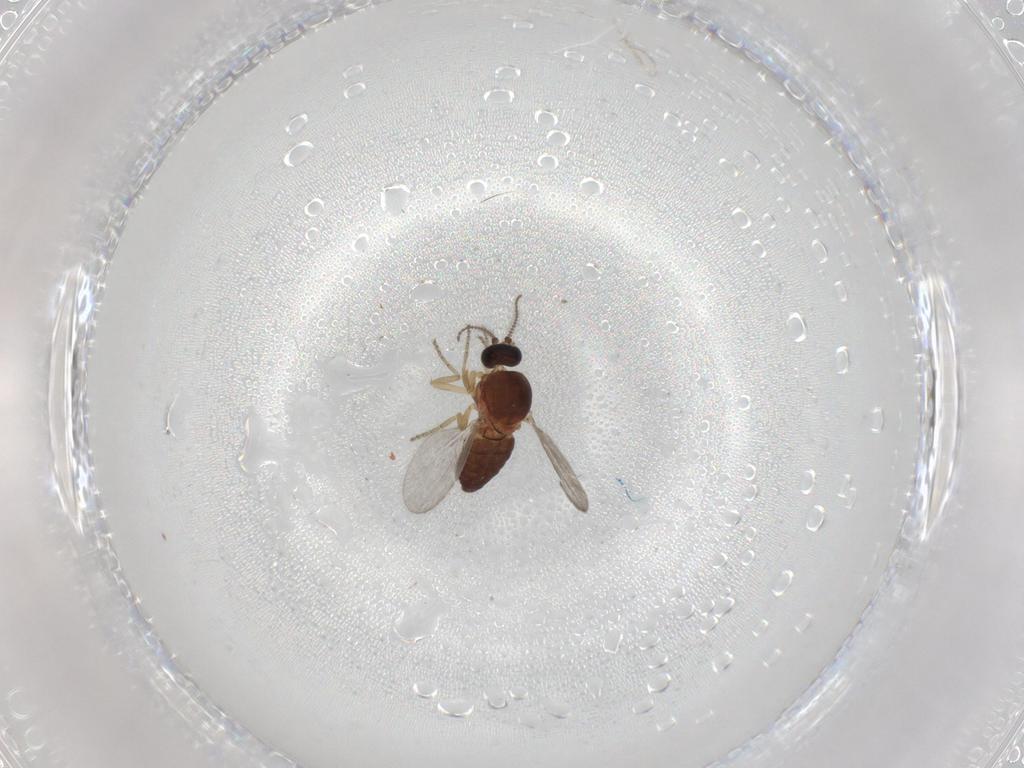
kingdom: Animalia
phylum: Arthropoda
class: Insecta
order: Diptera
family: Ceratopogonidae
